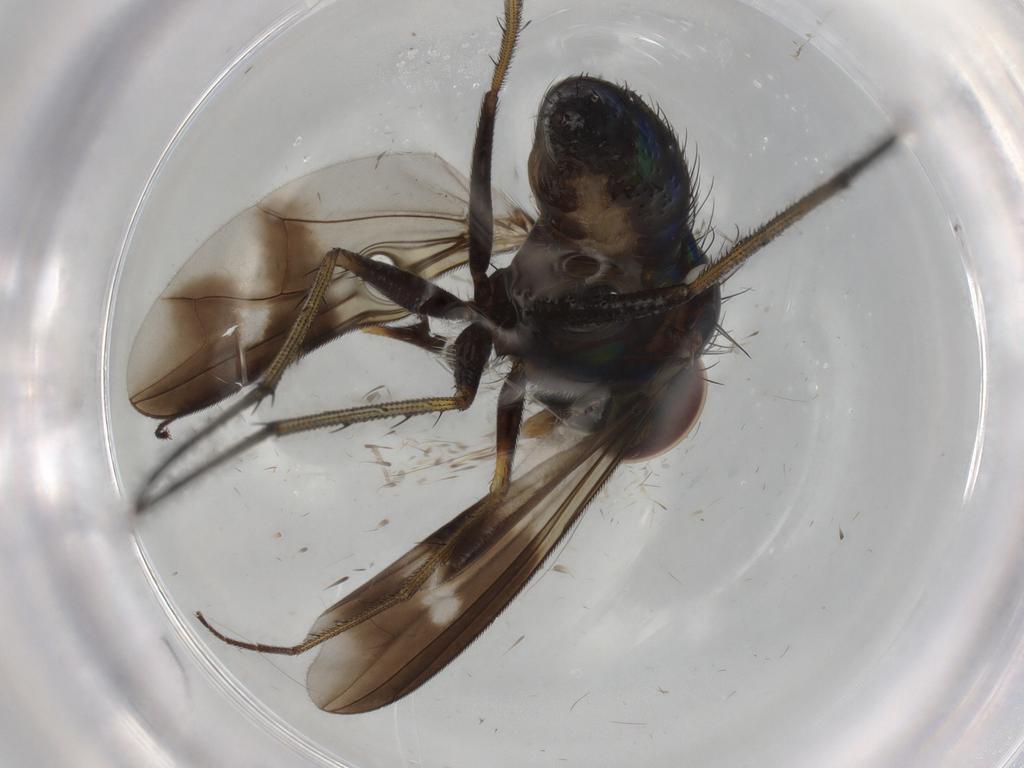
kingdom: Animalia
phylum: Arthropoda
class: Insecta
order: Diptera
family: Dolichopodidae
